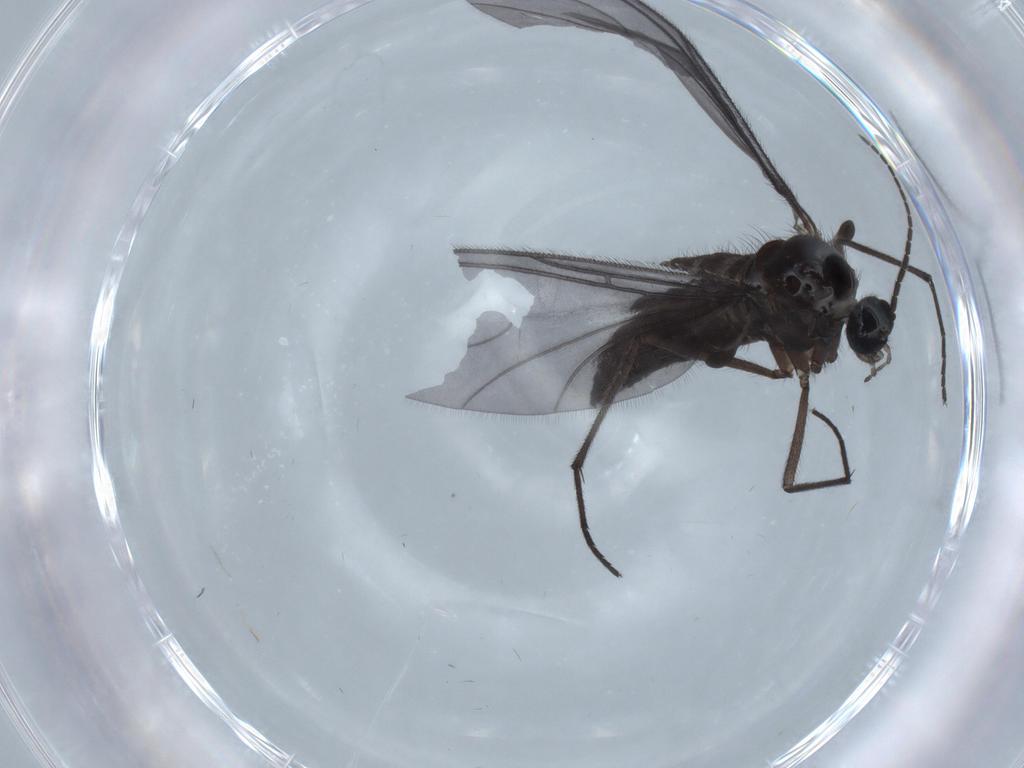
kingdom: Animalia
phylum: Arthropoda
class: Insecta
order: Diptera
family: Sciaridae
